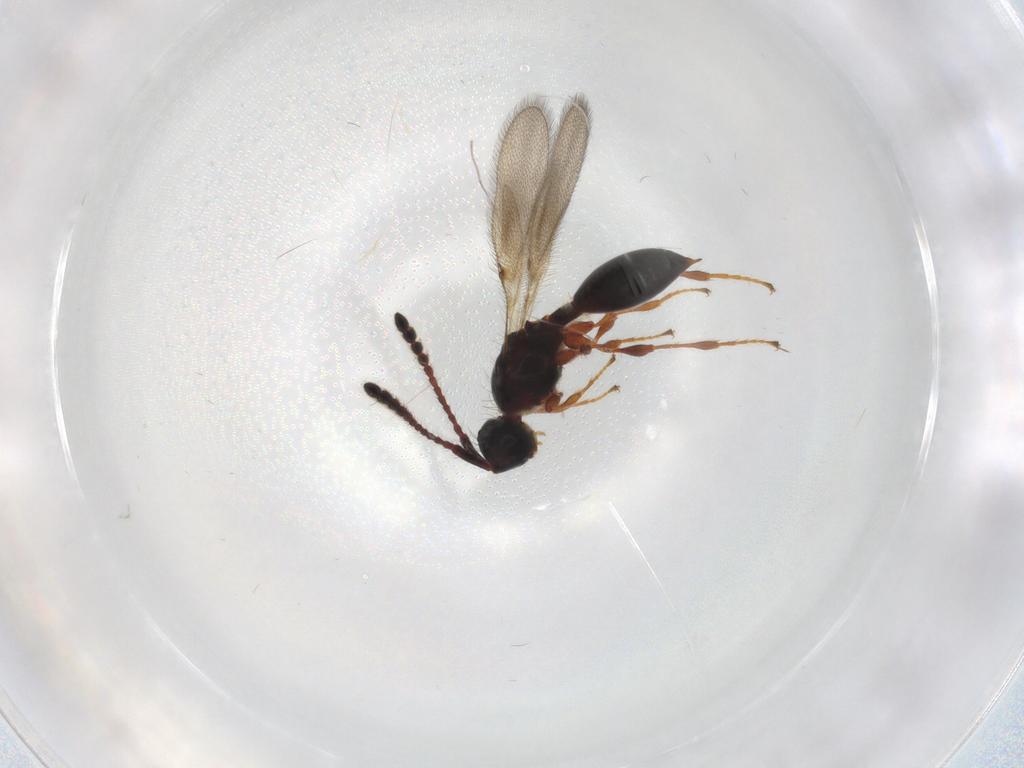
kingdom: Animalia
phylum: Arthropoda
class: Insecta
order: Hymenoptera
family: Diapriidae
